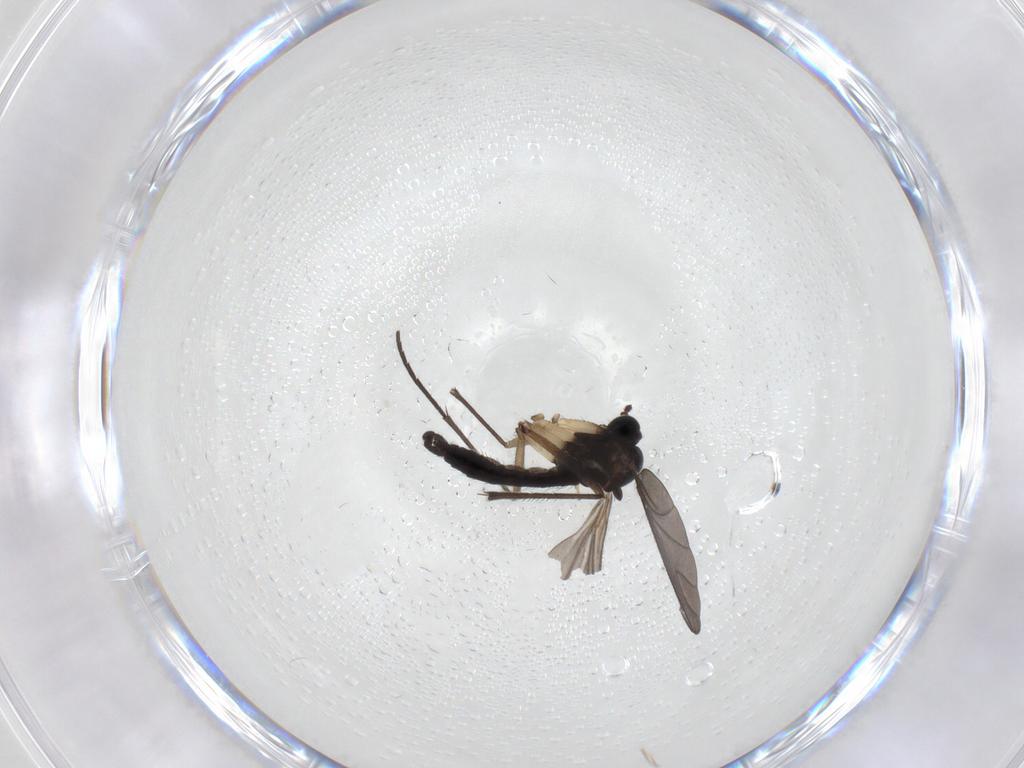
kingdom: Animalia
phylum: Arthropoda
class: Insecta
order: Diptera
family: Sciaridae
